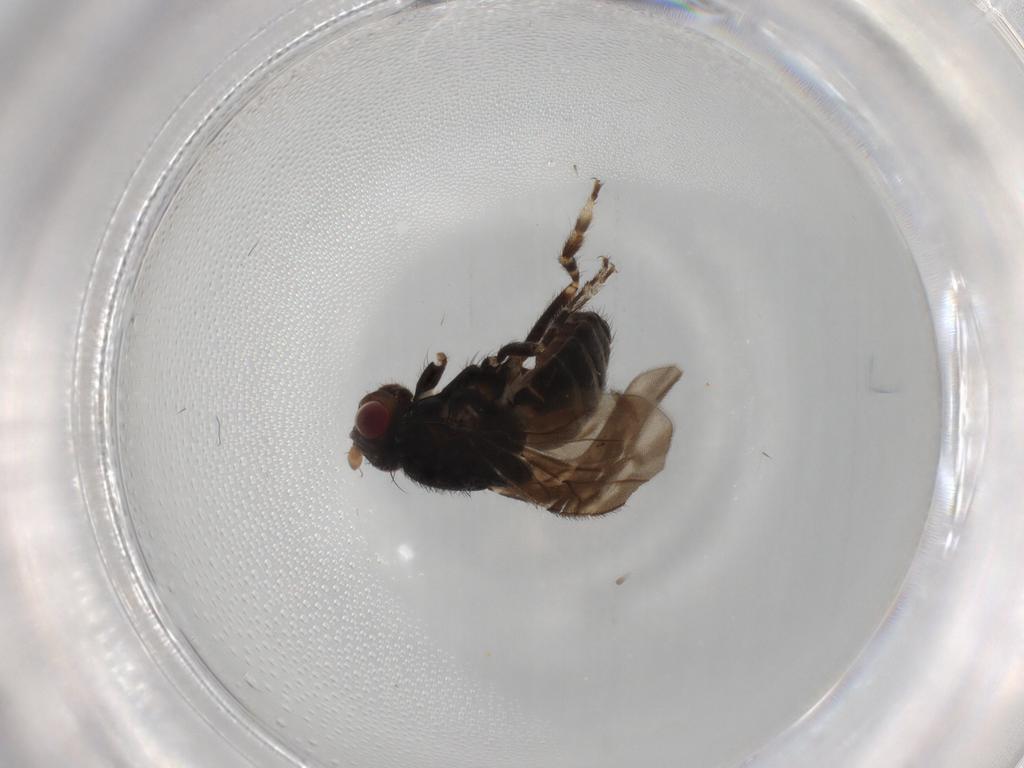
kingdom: Animalia
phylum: Arthropoda
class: Insecta
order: Diptera
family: Sphaeroceridae
